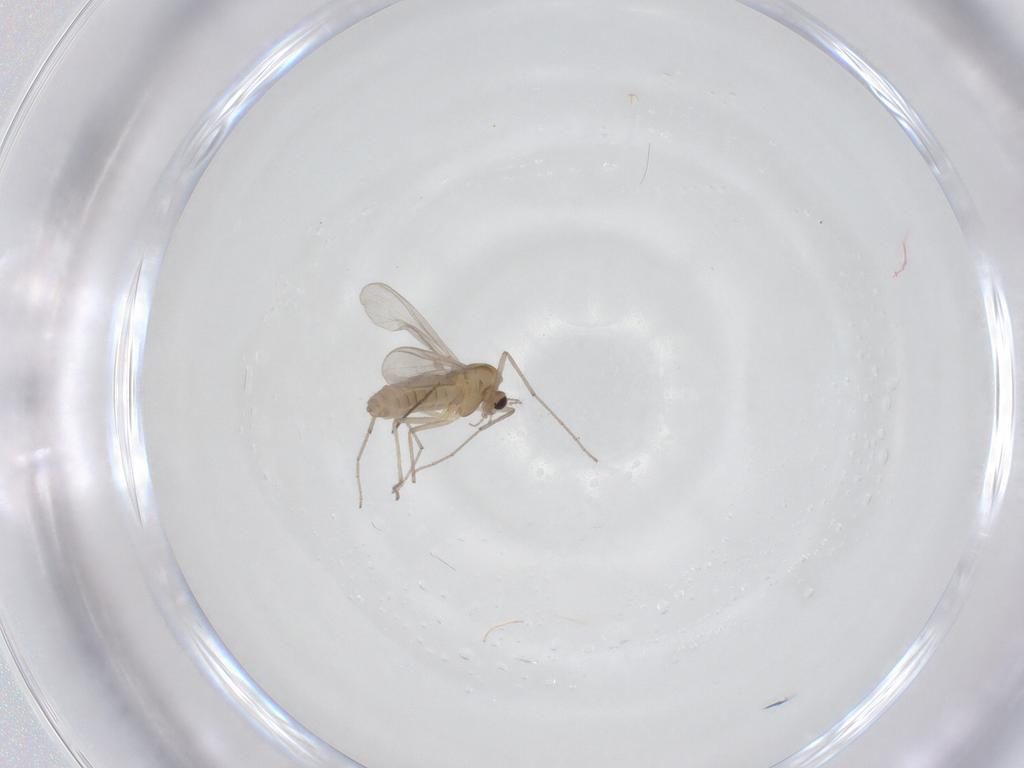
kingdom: Animalia
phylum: Arthropoda
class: Insecta
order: Diptera
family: Chironomidae
